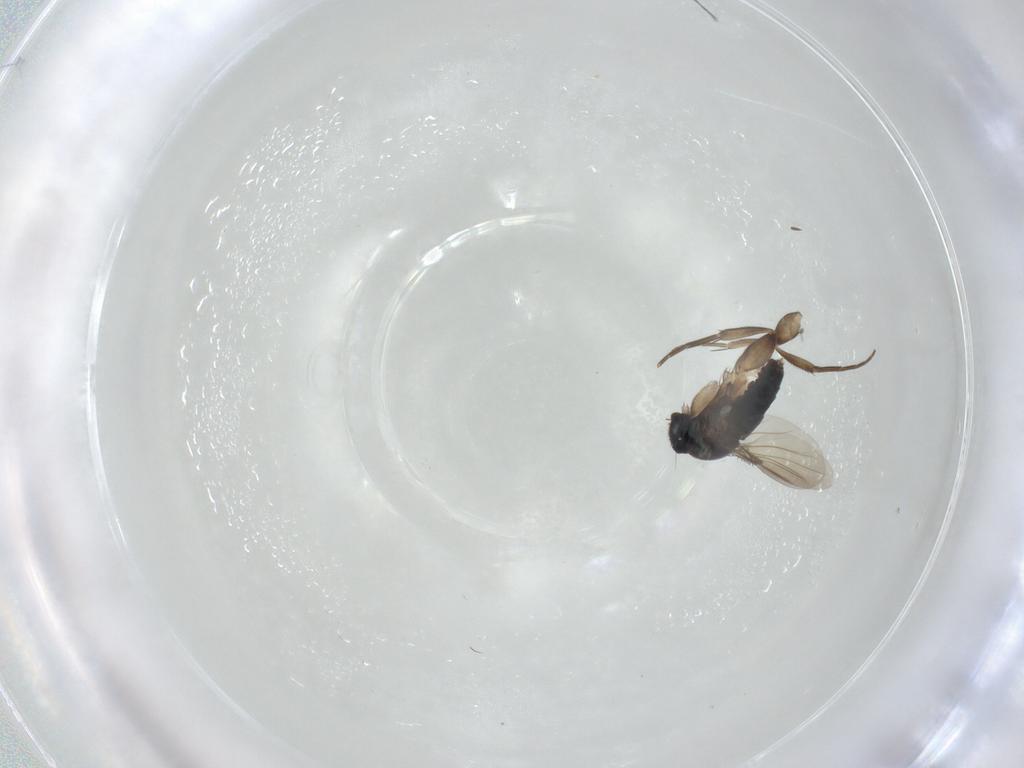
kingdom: Animalia
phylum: Arthropoda
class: Insecta
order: Diptera
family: Phoridae
